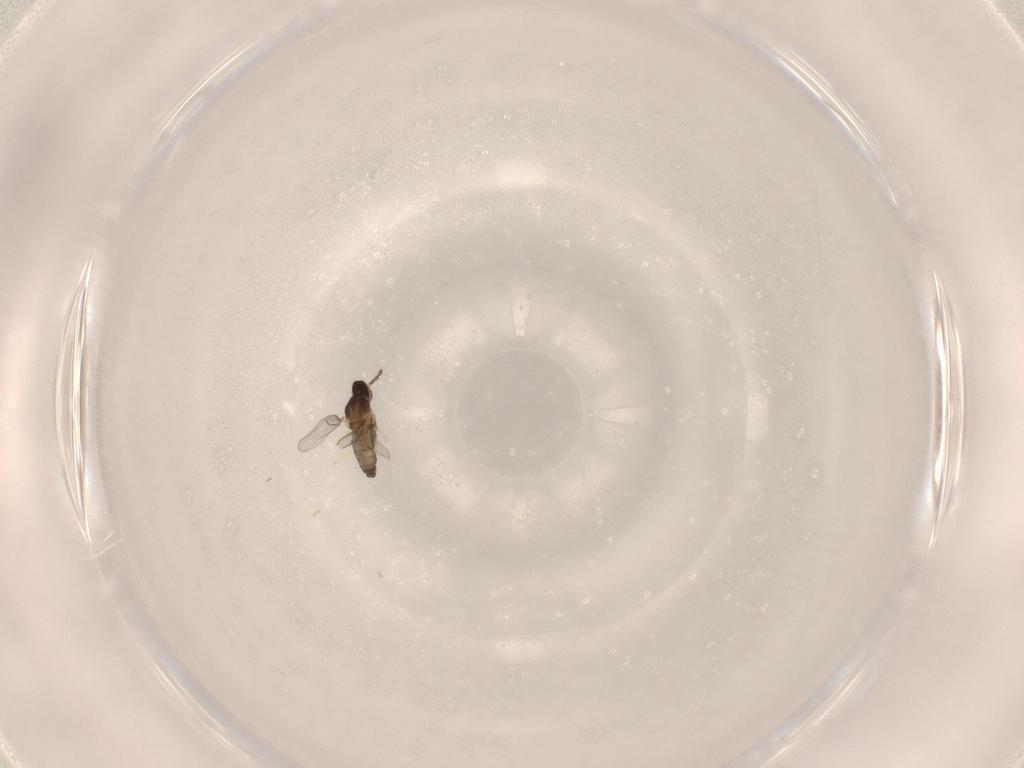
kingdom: Animalia
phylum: Arthropoda
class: Insecta
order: Diptera
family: Cecidomyiidae
